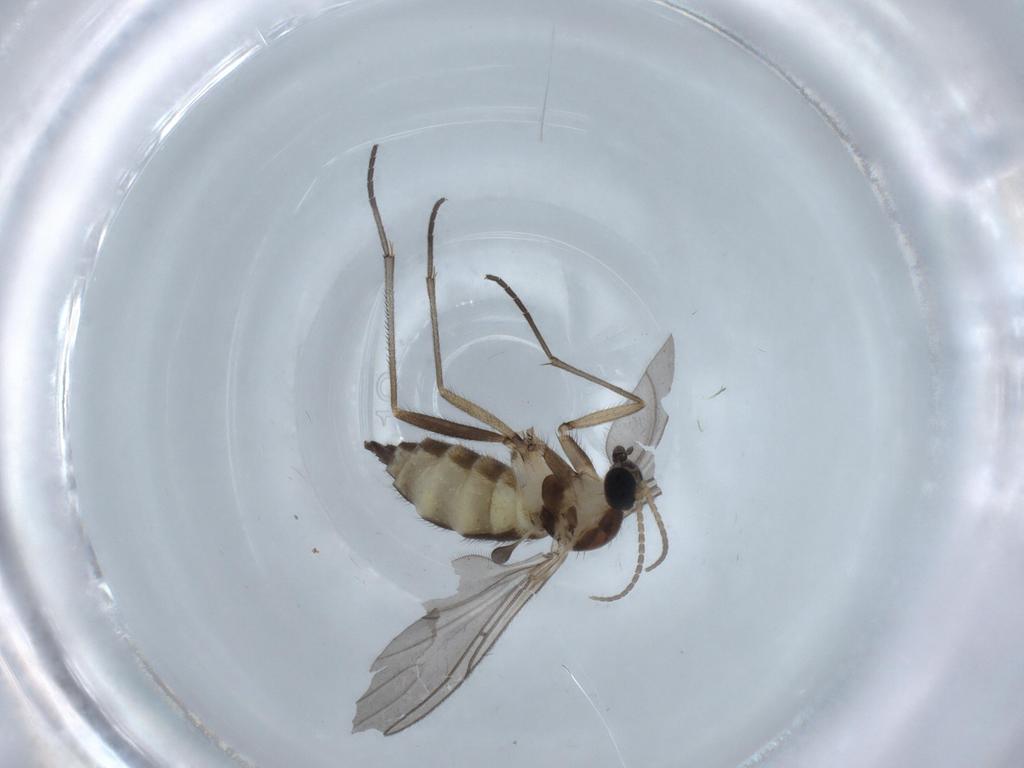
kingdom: Animalia
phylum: Arthropoda
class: Insecta
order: Diptera
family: Sciaridae
